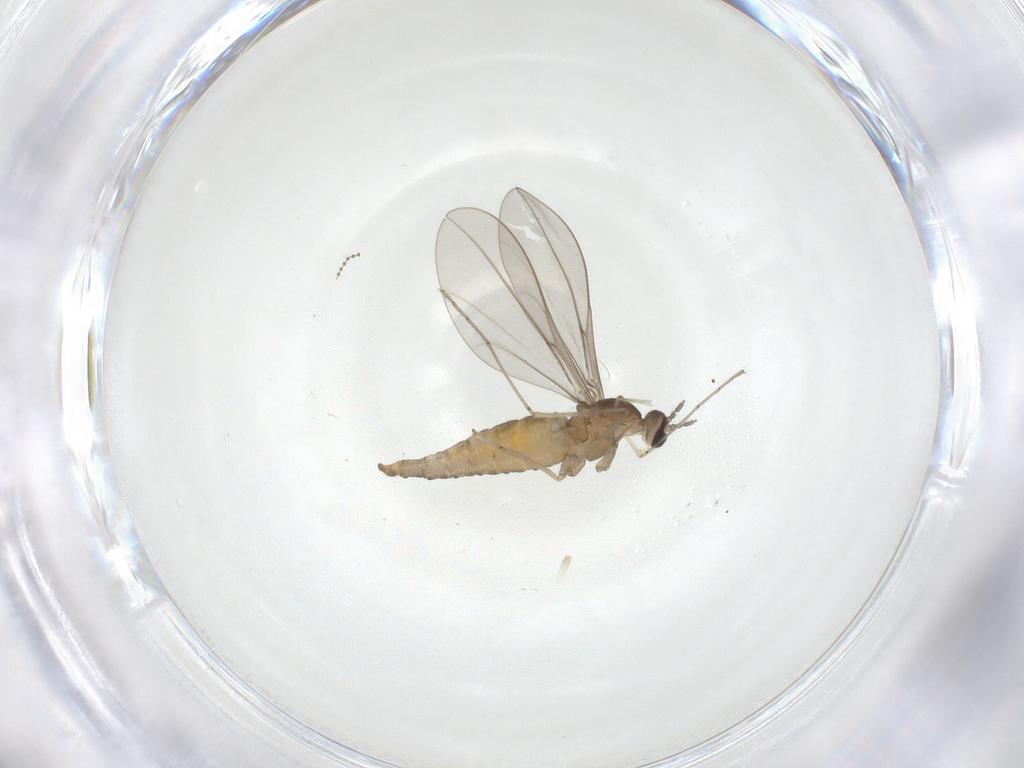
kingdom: Animalia
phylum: Arthropoda
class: Insecta
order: Diptera
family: Cecidomyiidae
